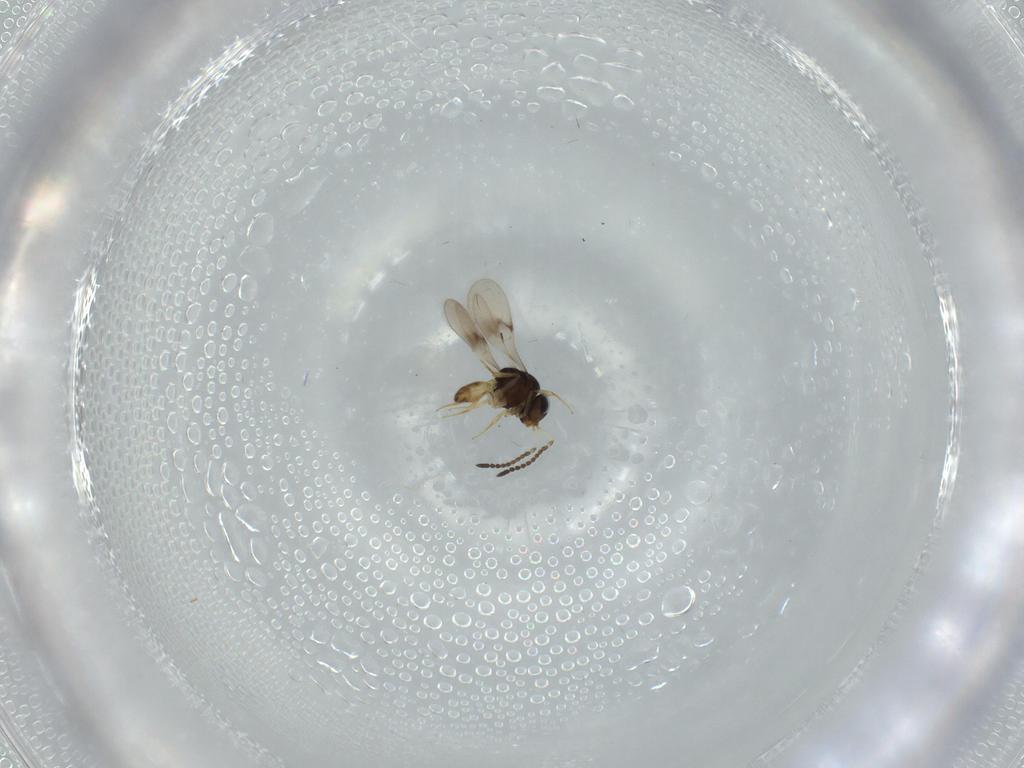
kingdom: Animalia
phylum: Arthropoda
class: Insecta
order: Hymenoptera
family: Scelionidae
